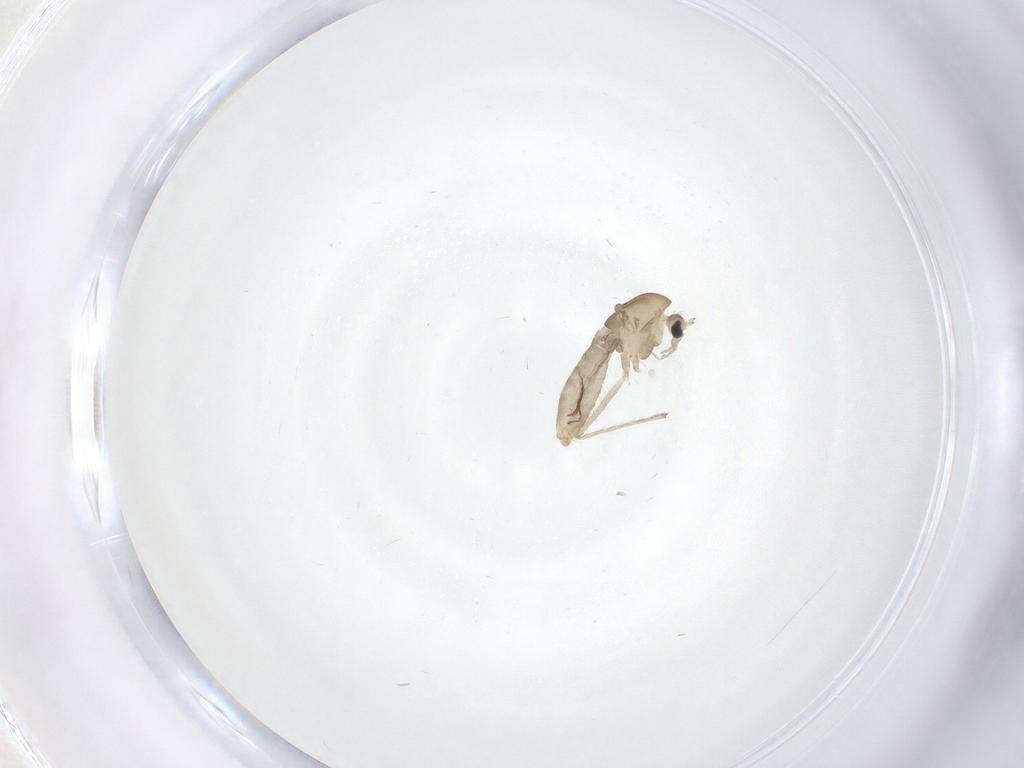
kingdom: Animalia
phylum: Arthropoda
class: Insecta
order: Diptera
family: Chironomidae
